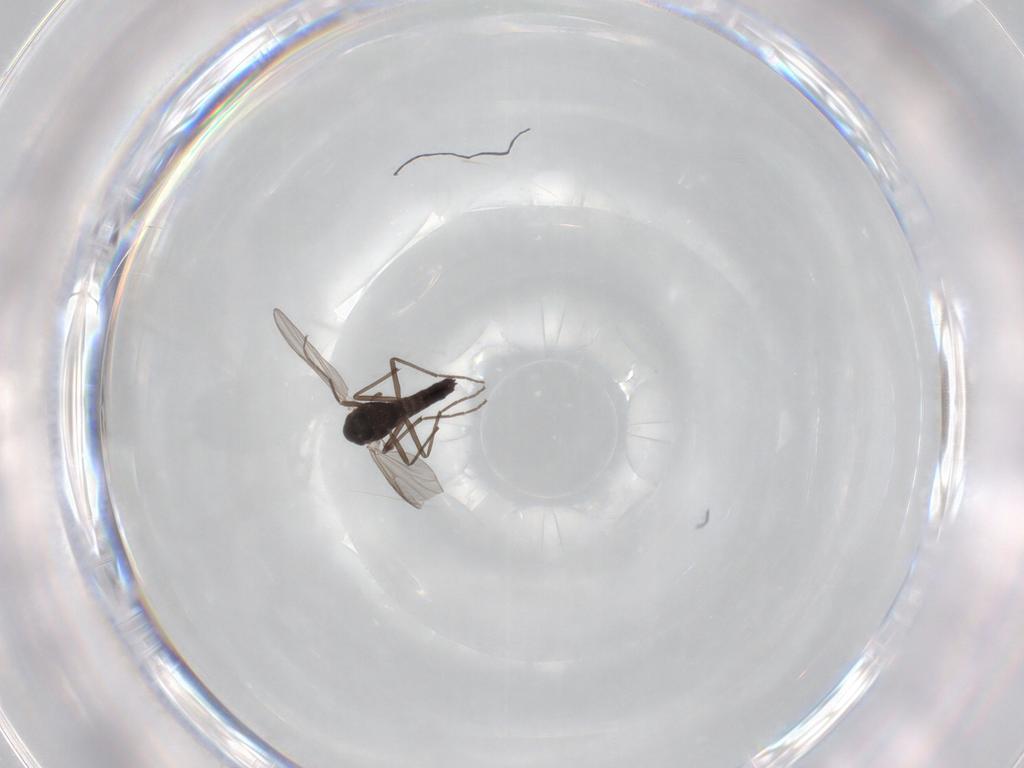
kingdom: Animalia
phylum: Arthropoda
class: Insecta
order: Diptera
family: Chironomidae
